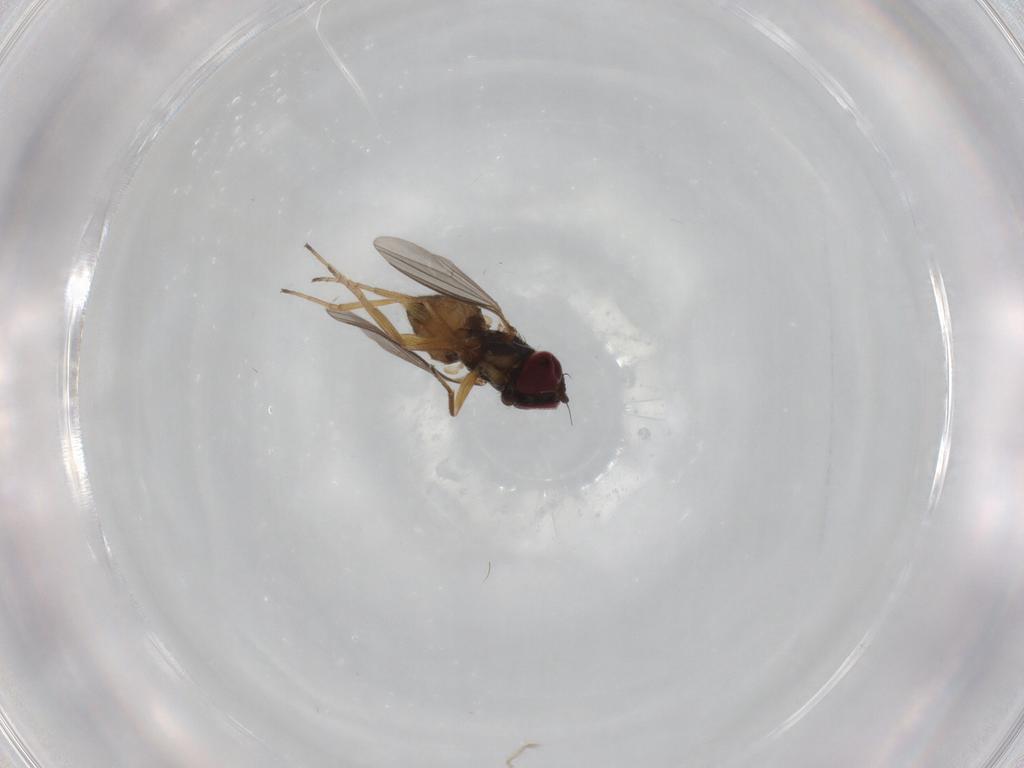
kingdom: Animalia
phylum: Arthropoda
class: Insecta
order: Diptera
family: Dolichopodidae
